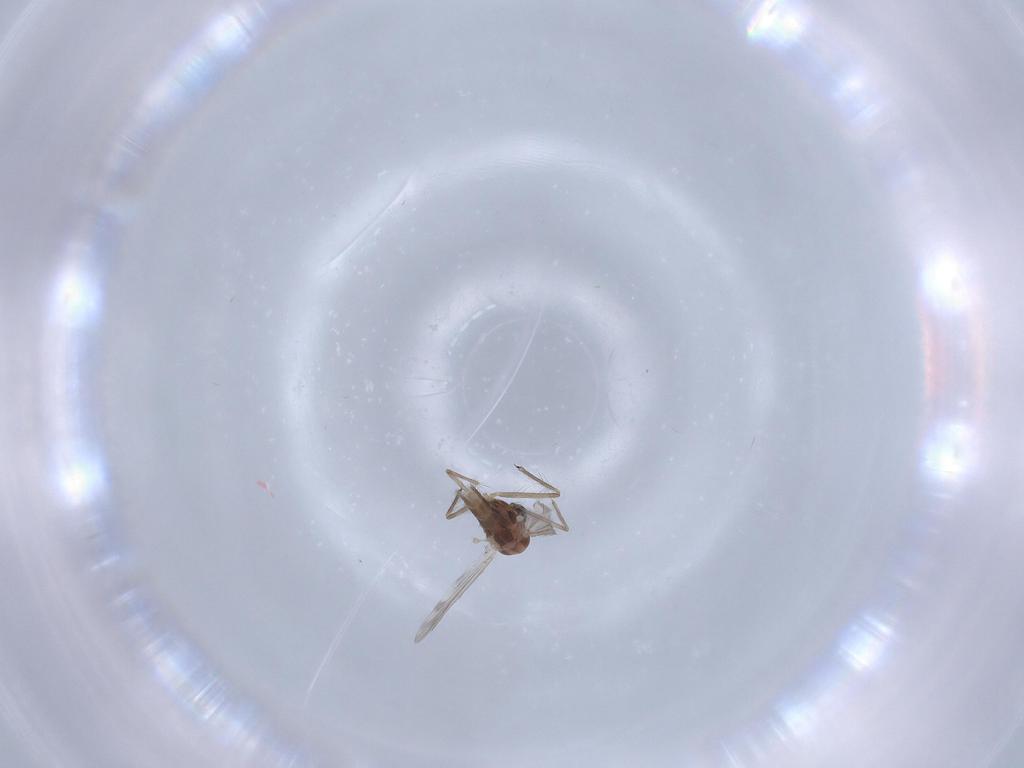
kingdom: Animalia
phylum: Arthropoda
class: Insecta
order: Diptera
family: Chironomidae
